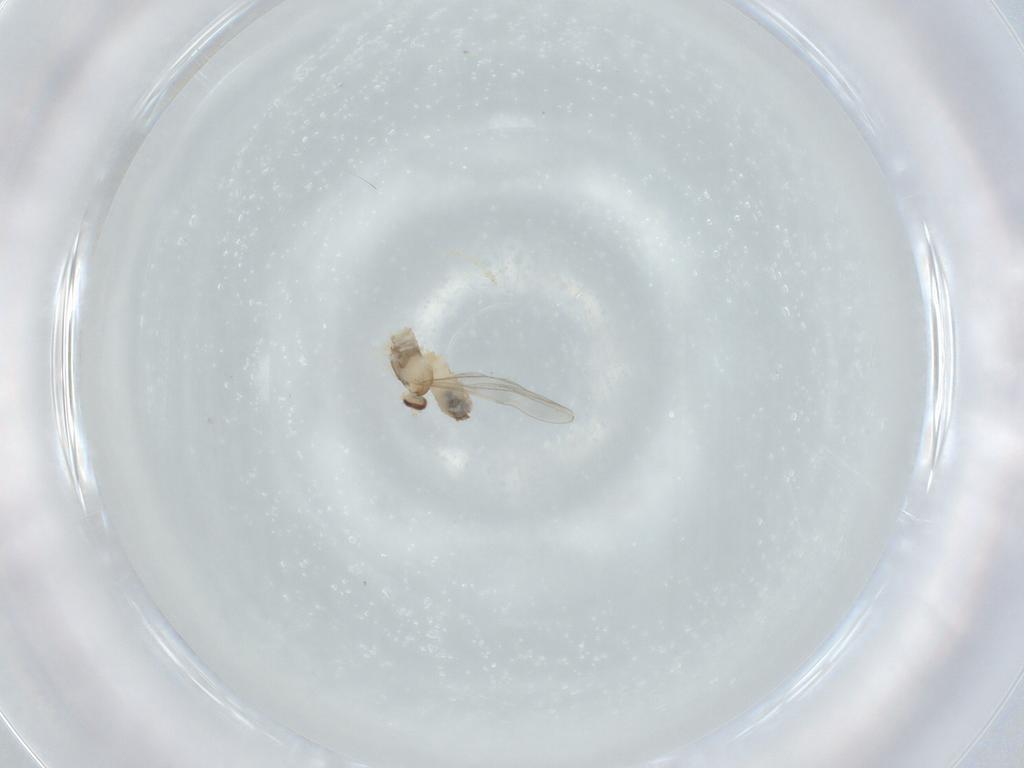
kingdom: Animalia
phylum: Arthropoda
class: Insecta
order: Diptera
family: Cecidomyiidae
